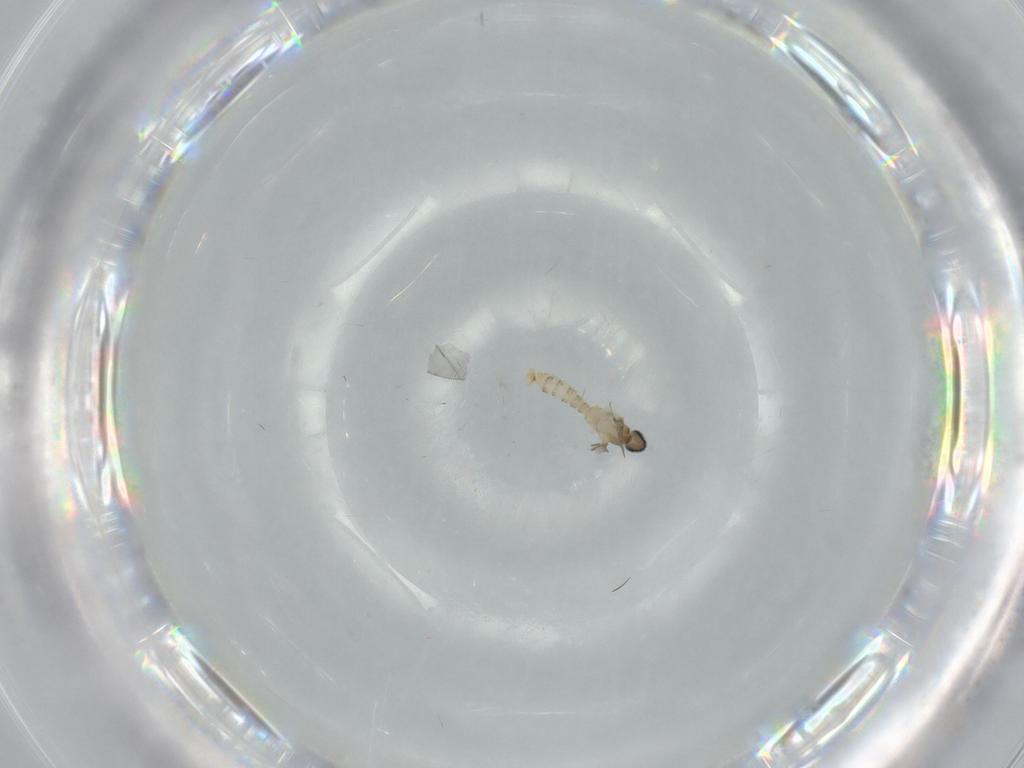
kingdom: Animalia
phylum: Arthropoda
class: Insecta
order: Diptera
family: Cecidomyiidae
